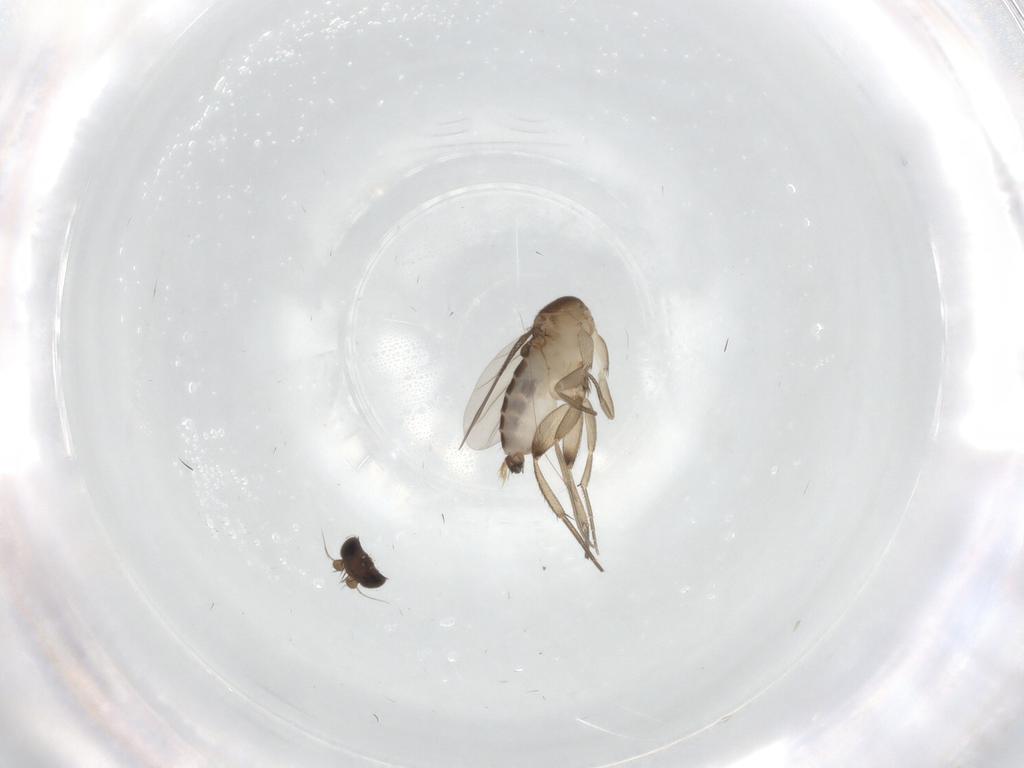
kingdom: Animalia
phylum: Arthropoda
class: Insecta
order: Diptera
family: Phoridae
